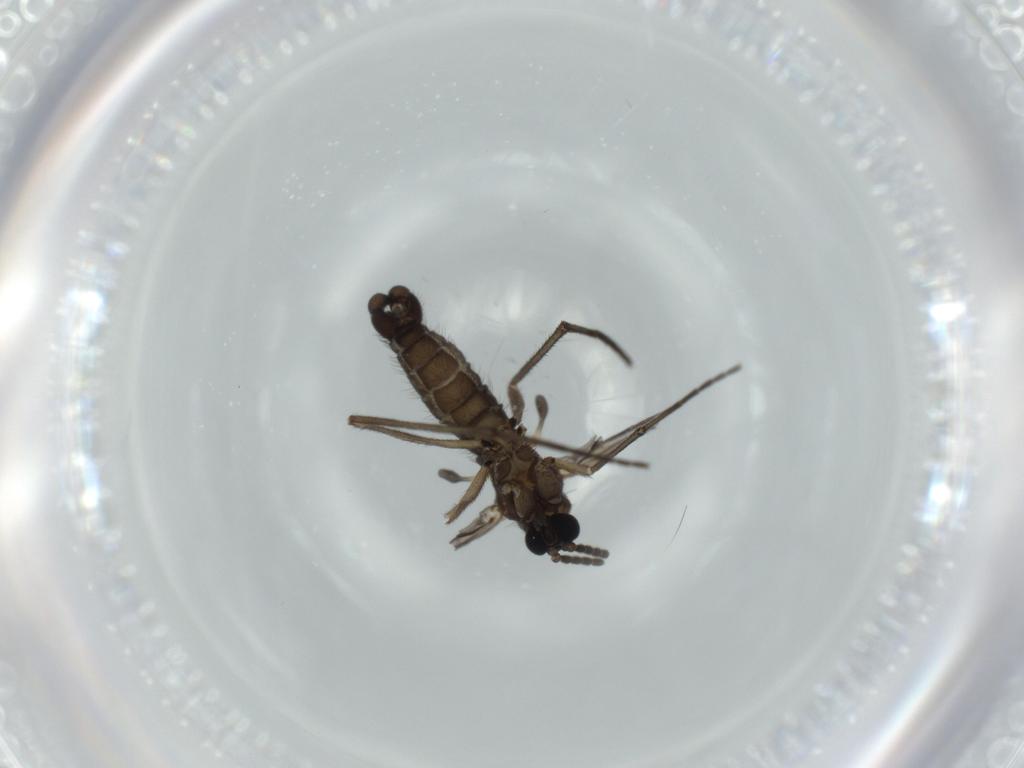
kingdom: Animalia
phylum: Arthropoda
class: Insecta
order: Diptera
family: Sciaridae
